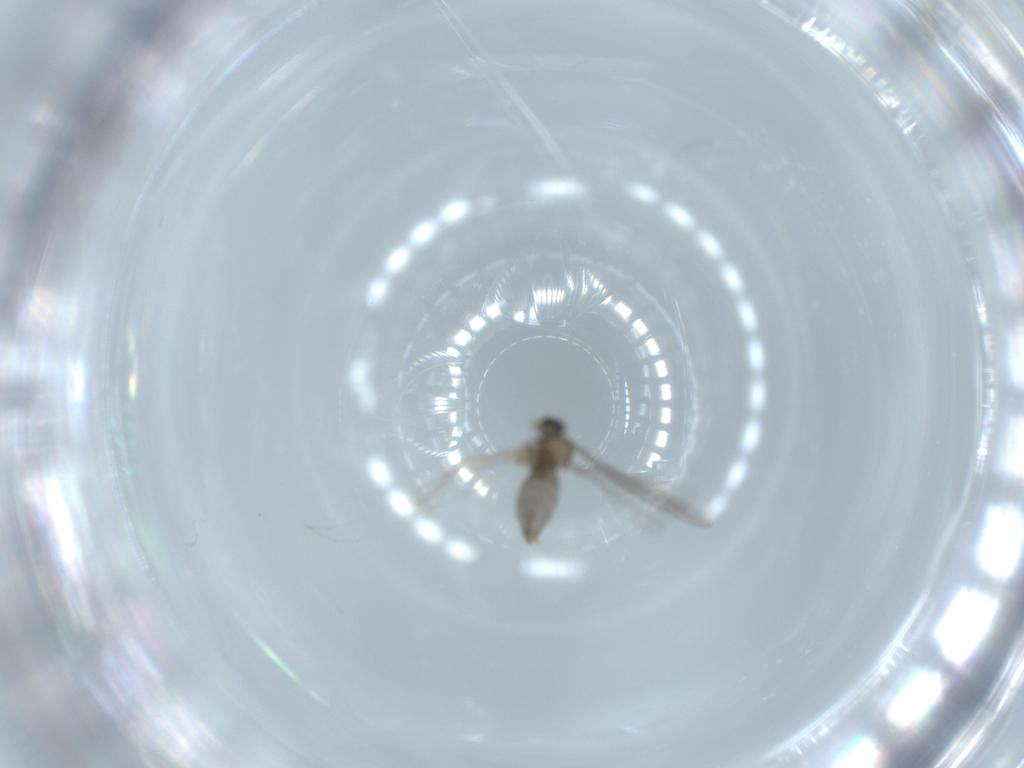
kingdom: Animalia
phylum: Arthropoda
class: Insecta
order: Diptera
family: Cecidomyiidae
